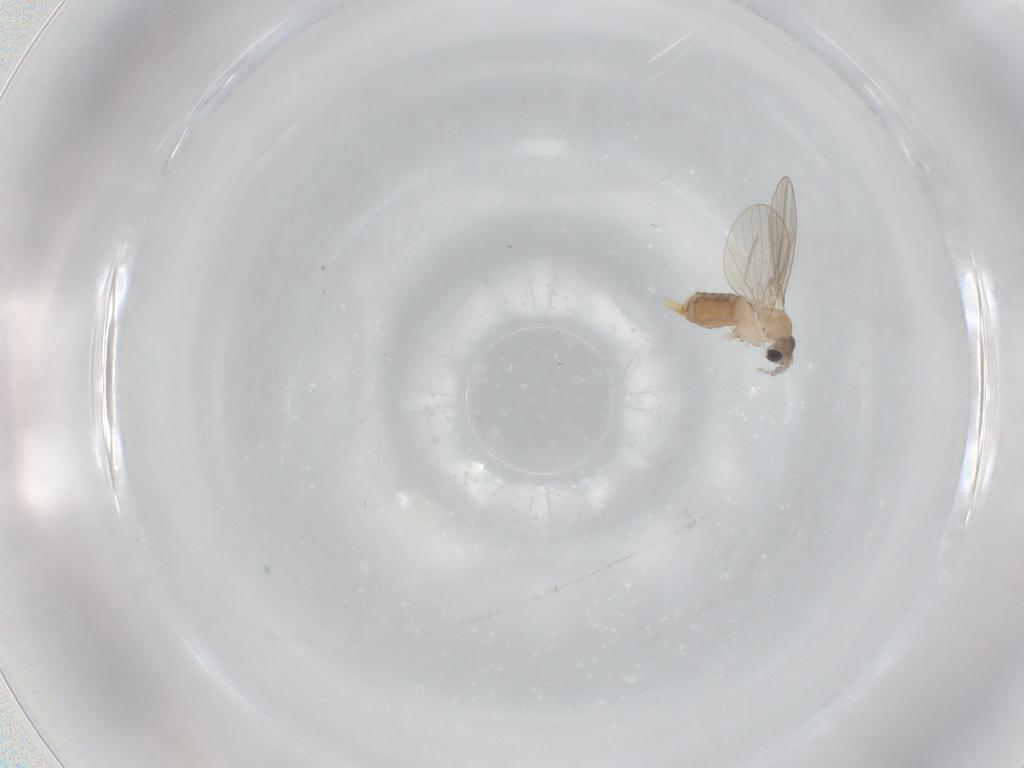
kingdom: Animalia
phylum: Arthropoda
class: Insecta
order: Diptera
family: Psychodidae
